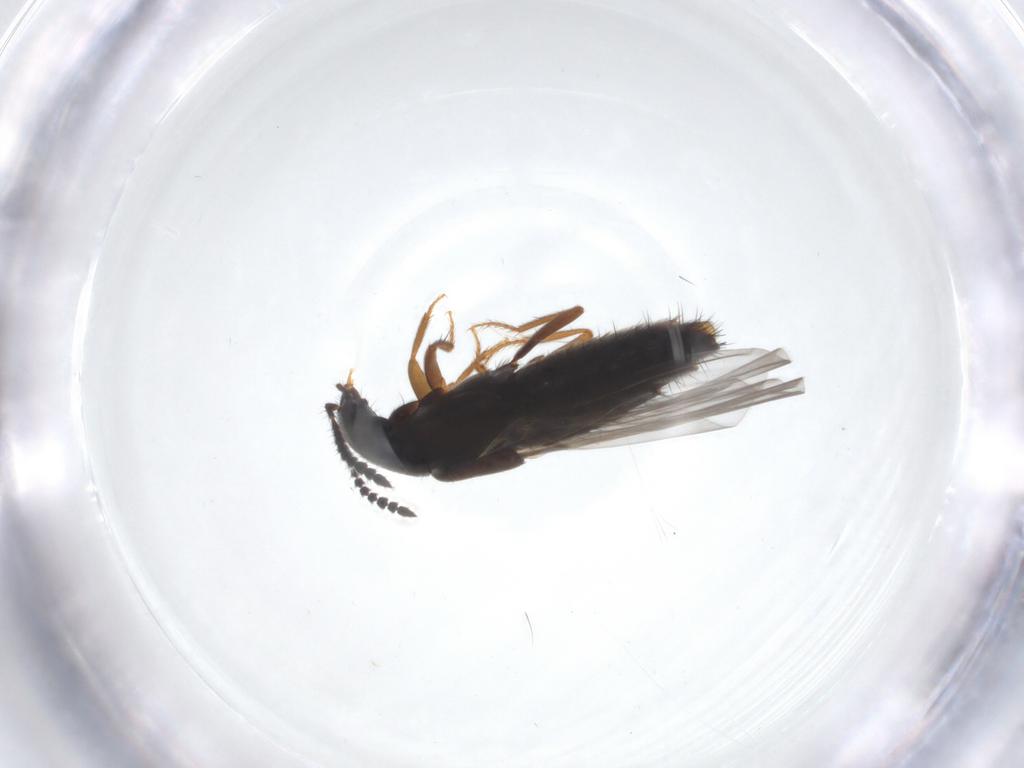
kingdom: Animalia
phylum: Arthropoda
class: Insecta
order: Coleoptera
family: Staphylinidae
